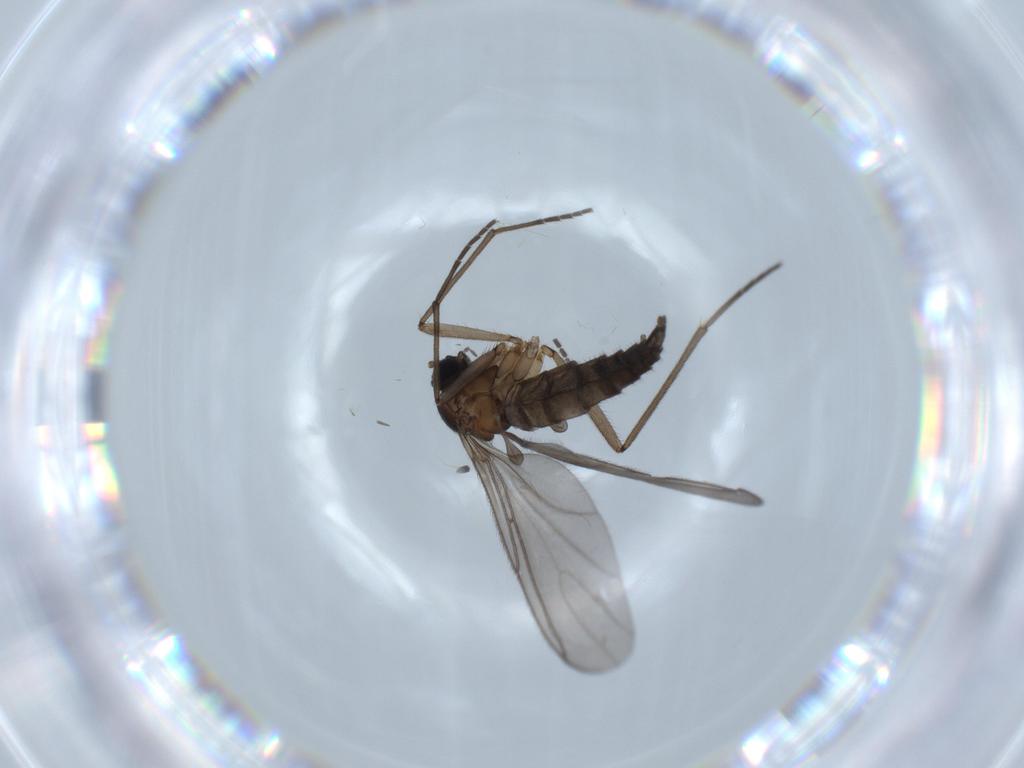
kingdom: Animalia
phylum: Arthropoda
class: Insecta
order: Diptera
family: Sciaridae
